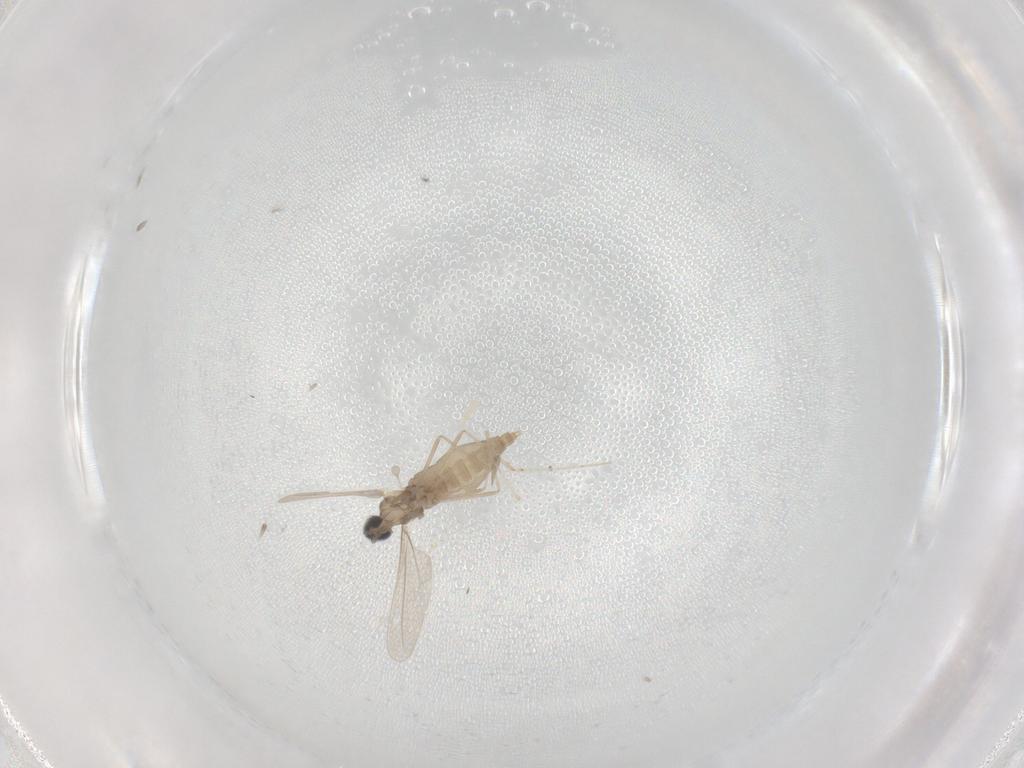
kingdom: Animalia
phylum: Arthropoda
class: Insecta
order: Diptera
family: Cecidomyiidae
